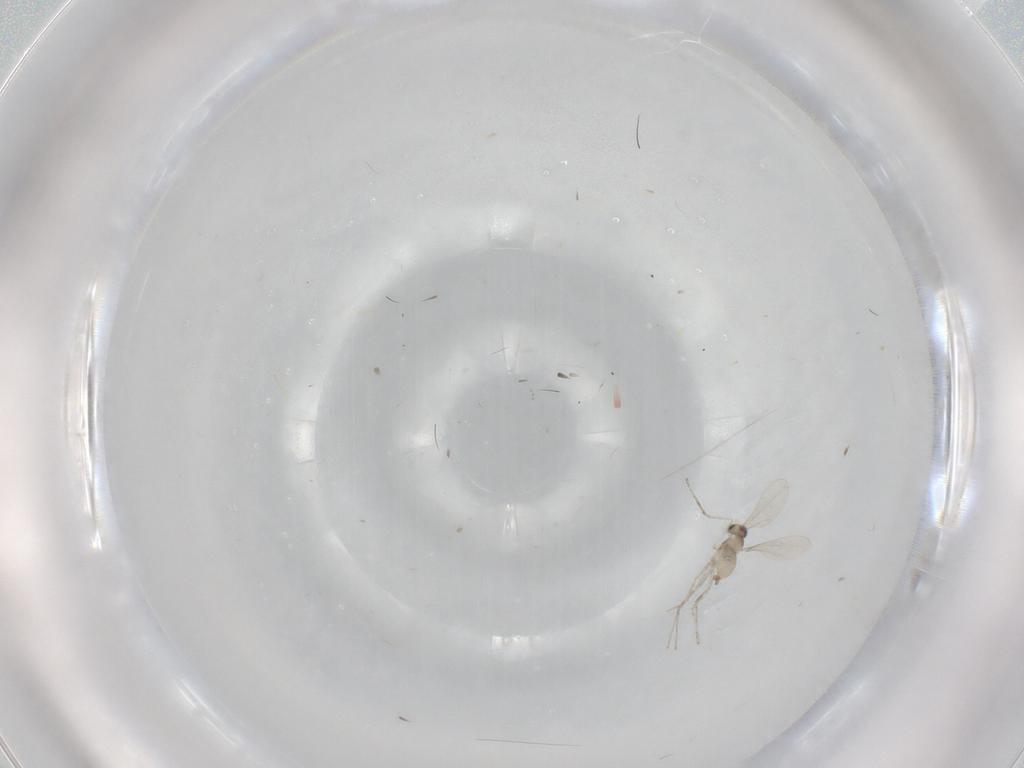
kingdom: Animalia
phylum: Arthropoda
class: Insecta
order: Diptera
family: Cecidomyiidae
